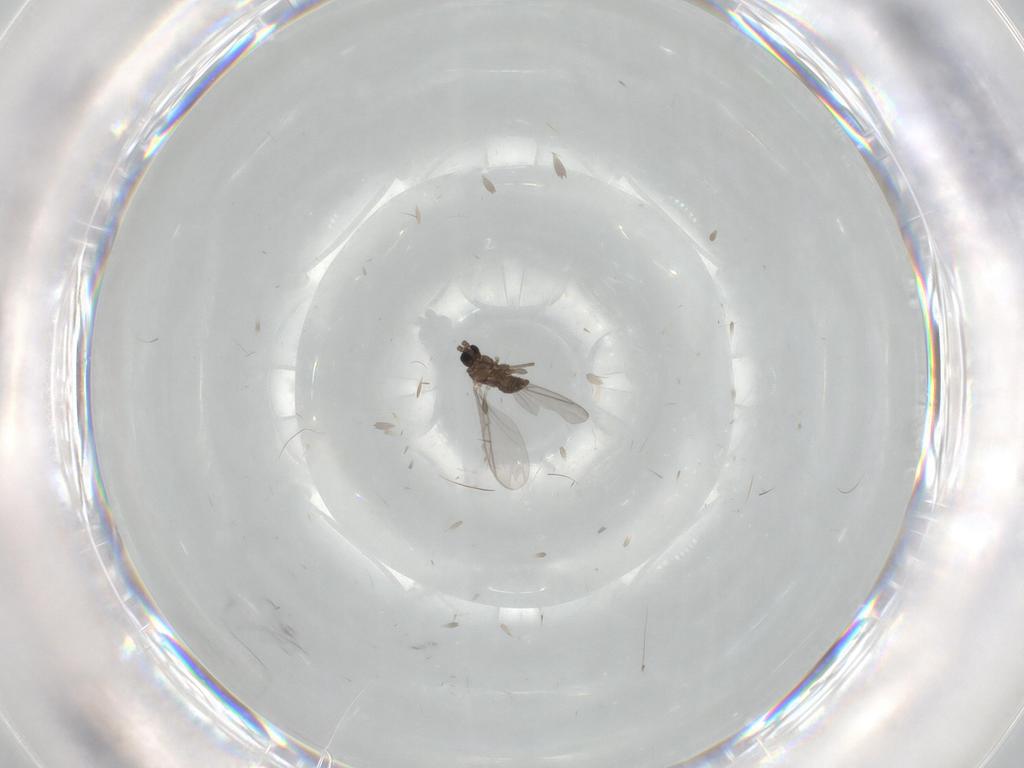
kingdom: Animalia
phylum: Arthropoda
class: Insecta
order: Diptera
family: Sciaridae
